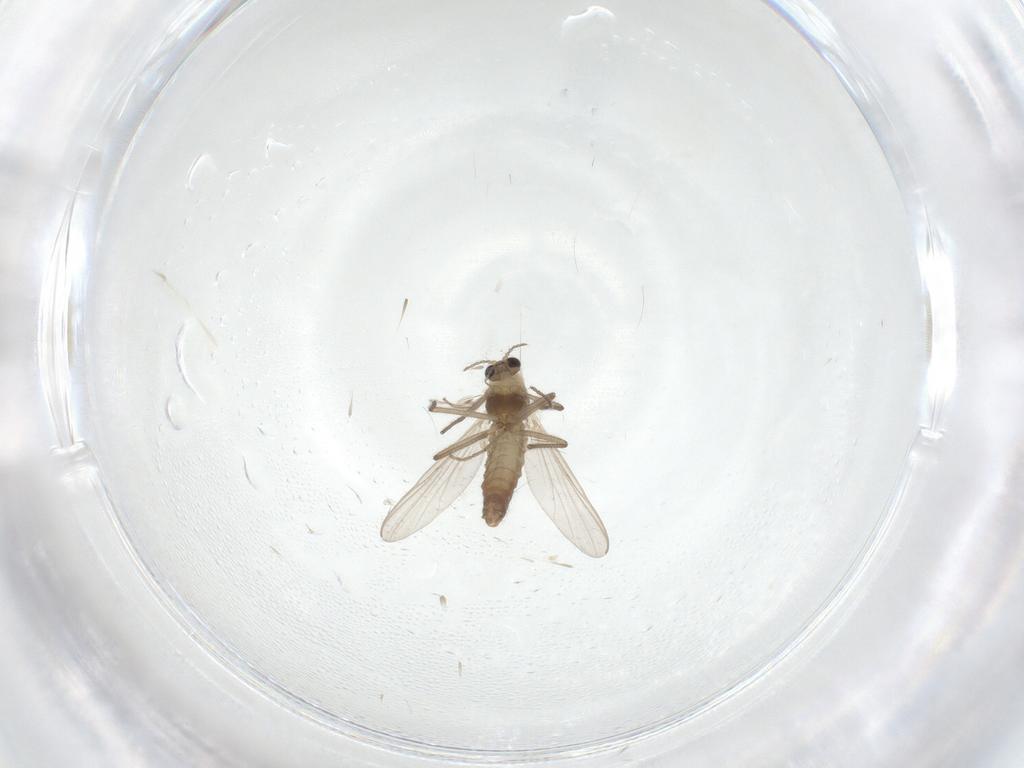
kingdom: Animalia
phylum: Arthropoda
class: Insecta
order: Diptera
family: Chironomidae
